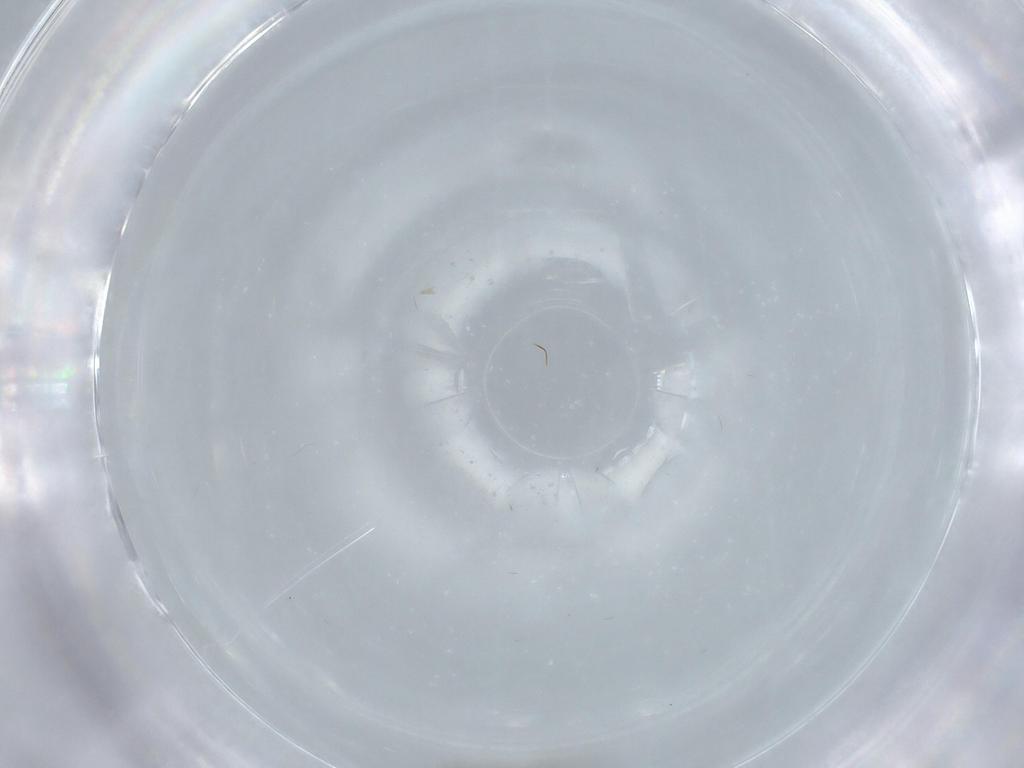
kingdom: Animalia
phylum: Arthropoda
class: Insecta
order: Diptera
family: Sphaeroceridae
